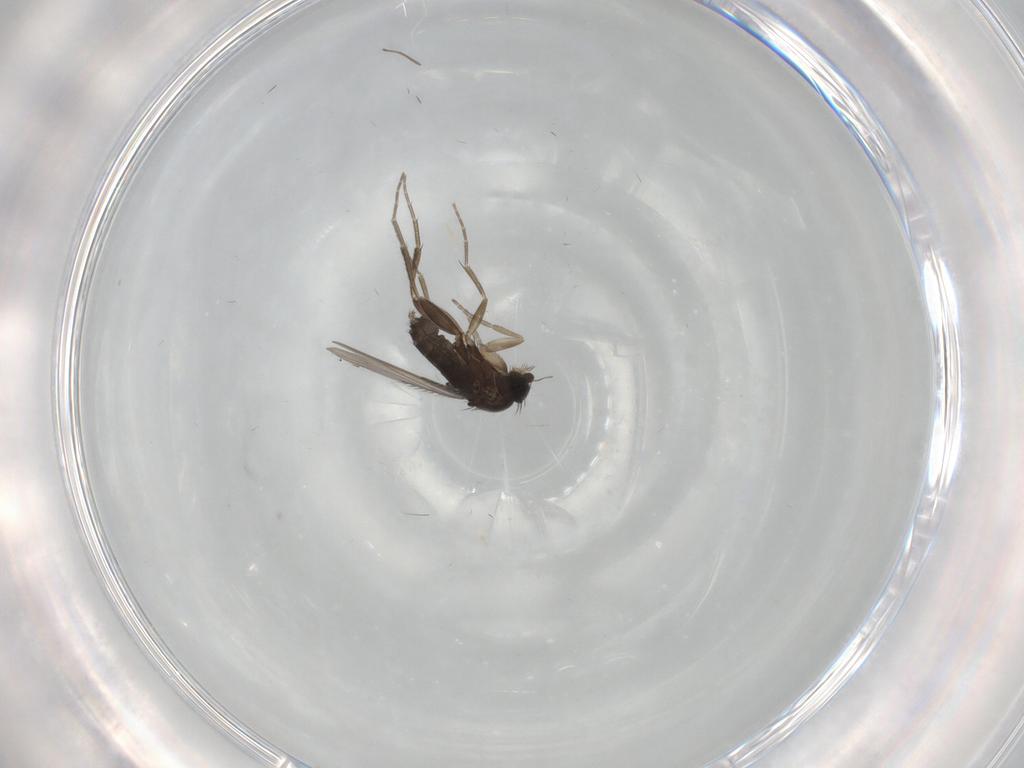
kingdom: Animalia
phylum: Arthropoda
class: Insecta
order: Diptera
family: Phoridae
